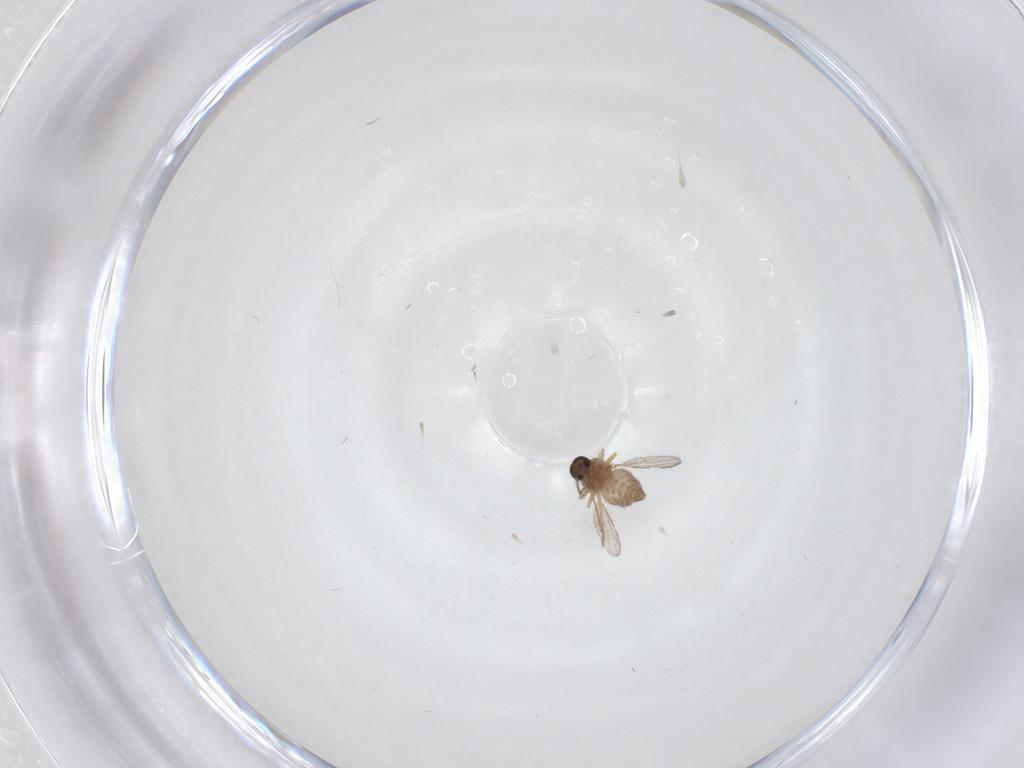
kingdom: Animalia
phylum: Arthropoda
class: Insecta
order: Diptera
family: Ceratopogonidae
